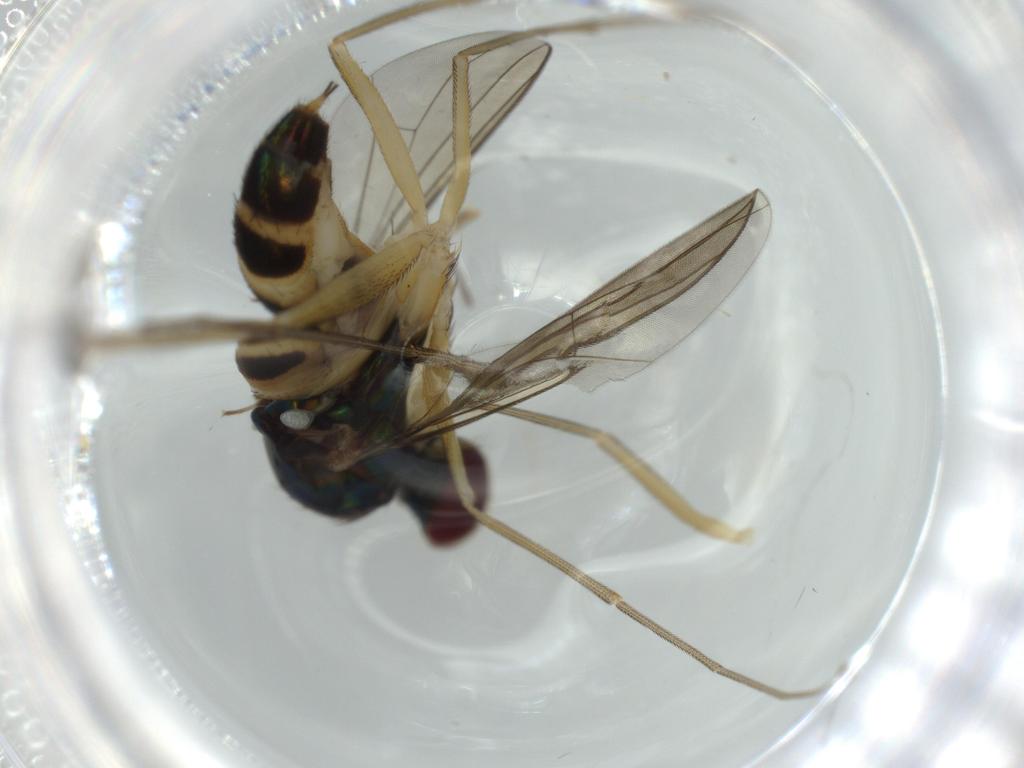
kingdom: Animalia
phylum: Arthropoda
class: Insecta
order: Diptera
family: Dolichopodidae
